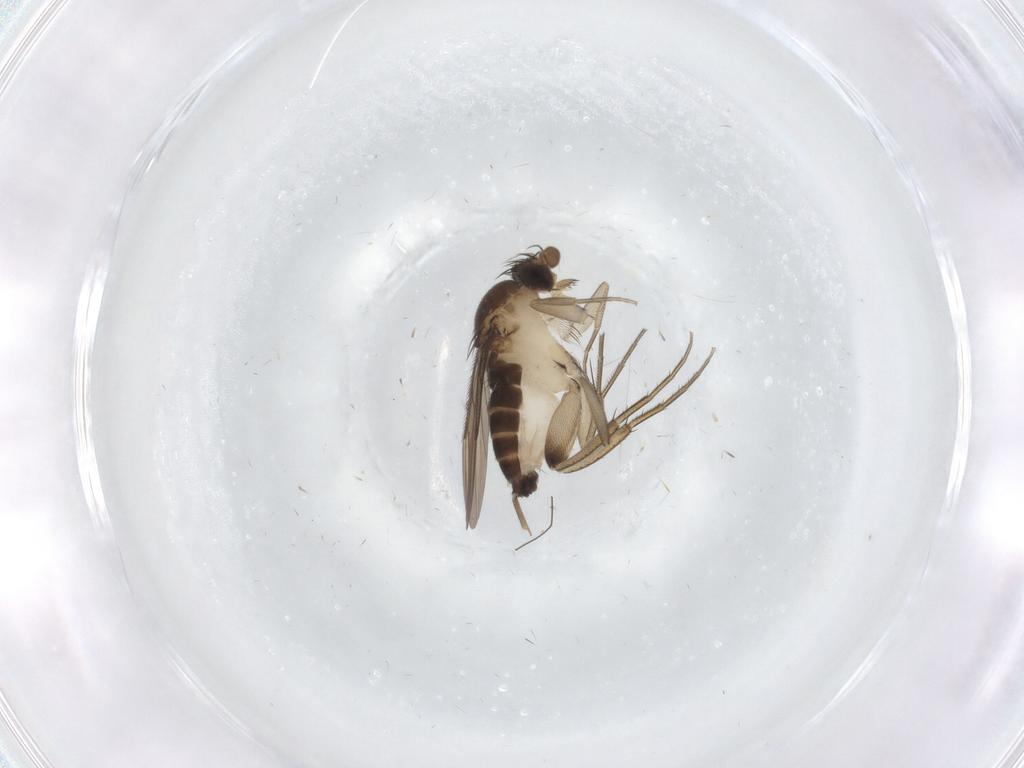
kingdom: Animalia
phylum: Arthropoda
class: Insecta
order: Diptera
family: Phoridae
